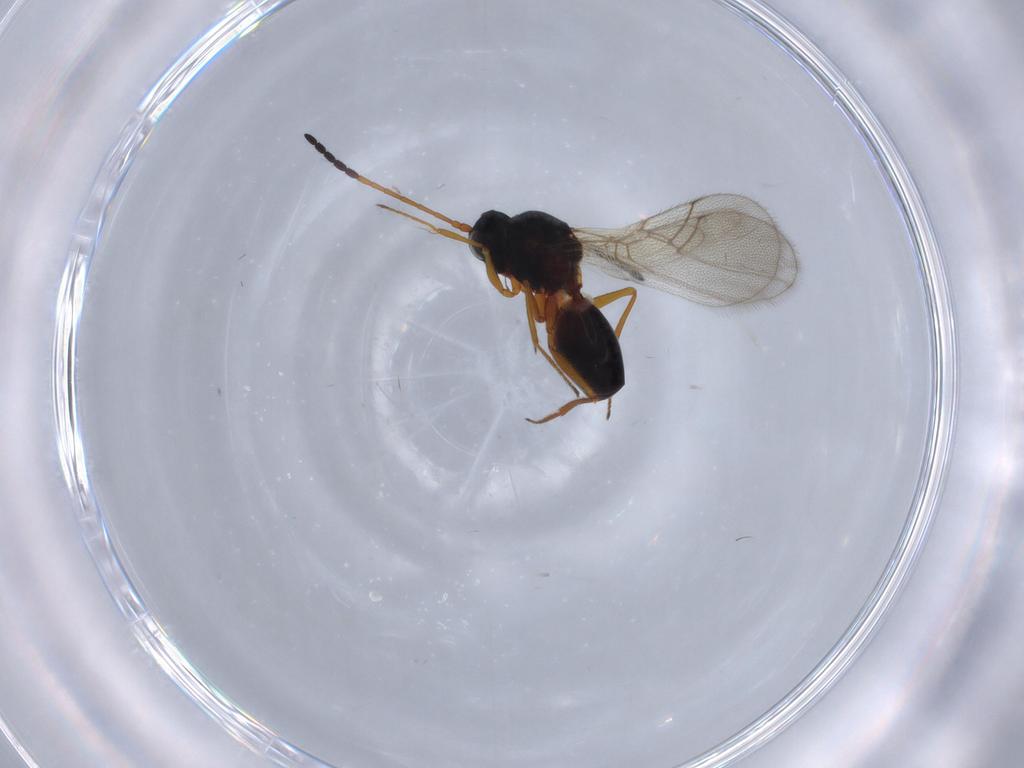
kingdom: Animalia
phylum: Arthropoda
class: Insecta
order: Hymenoptera
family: Figitidae
